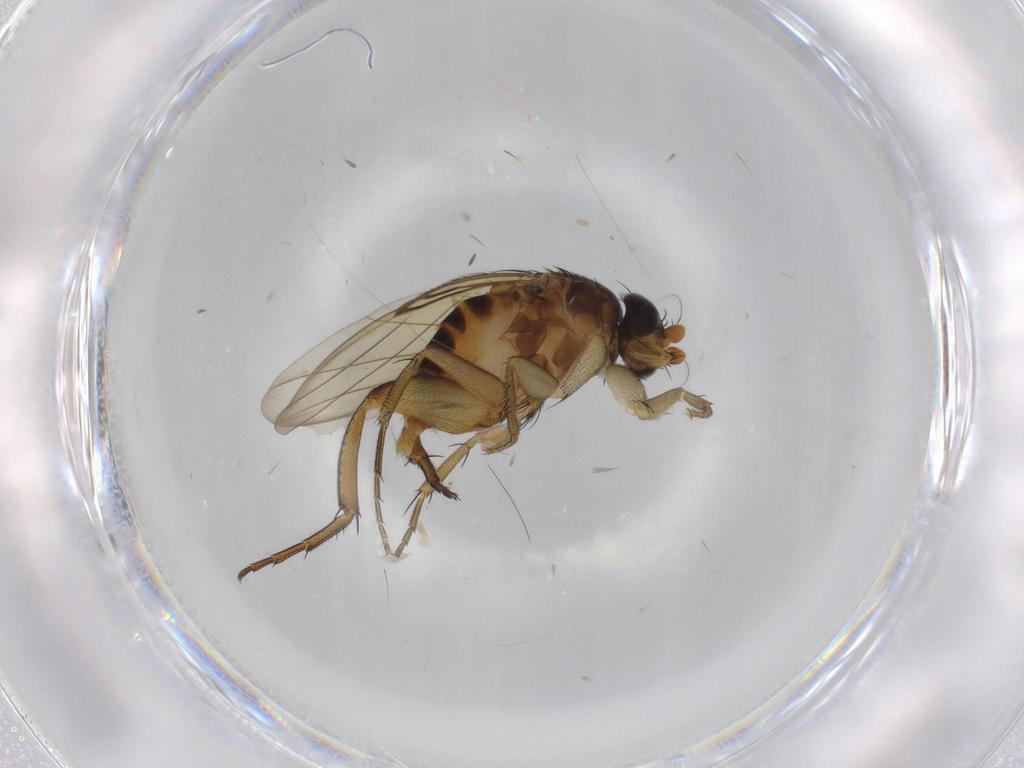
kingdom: Animalia
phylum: Arthropoda
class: Insecta
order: Diptera
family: Phoridae
